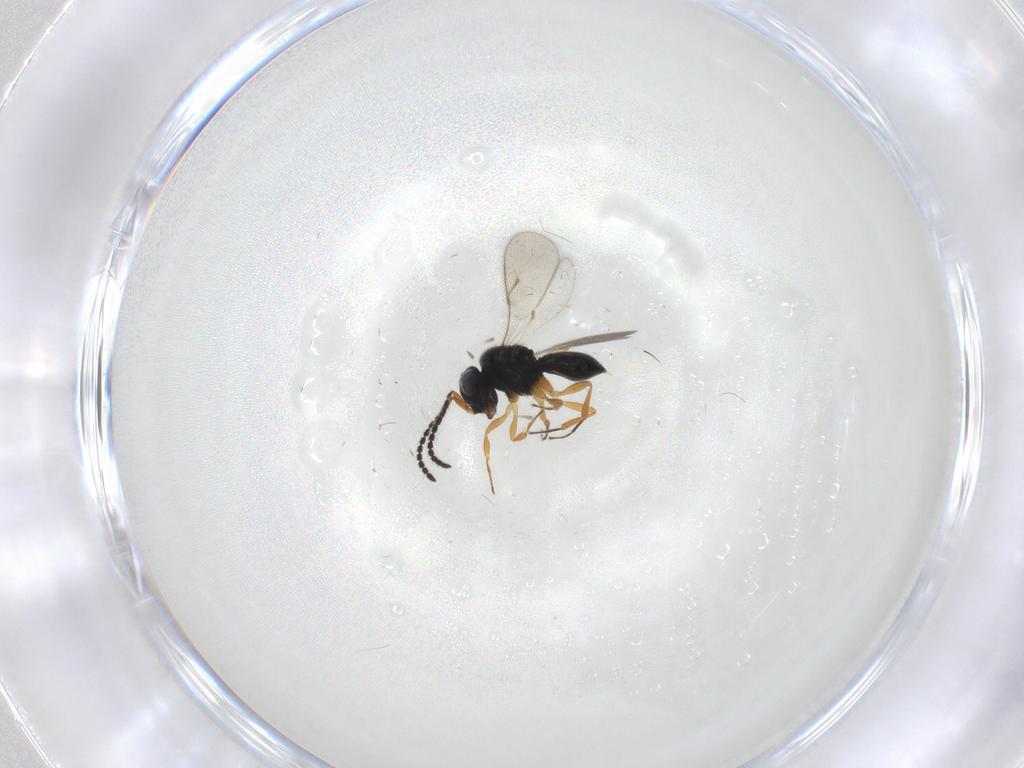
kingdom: Animalia
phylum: Arthropoda
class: Insecta
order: Hymenoptera
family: Scelionidae
